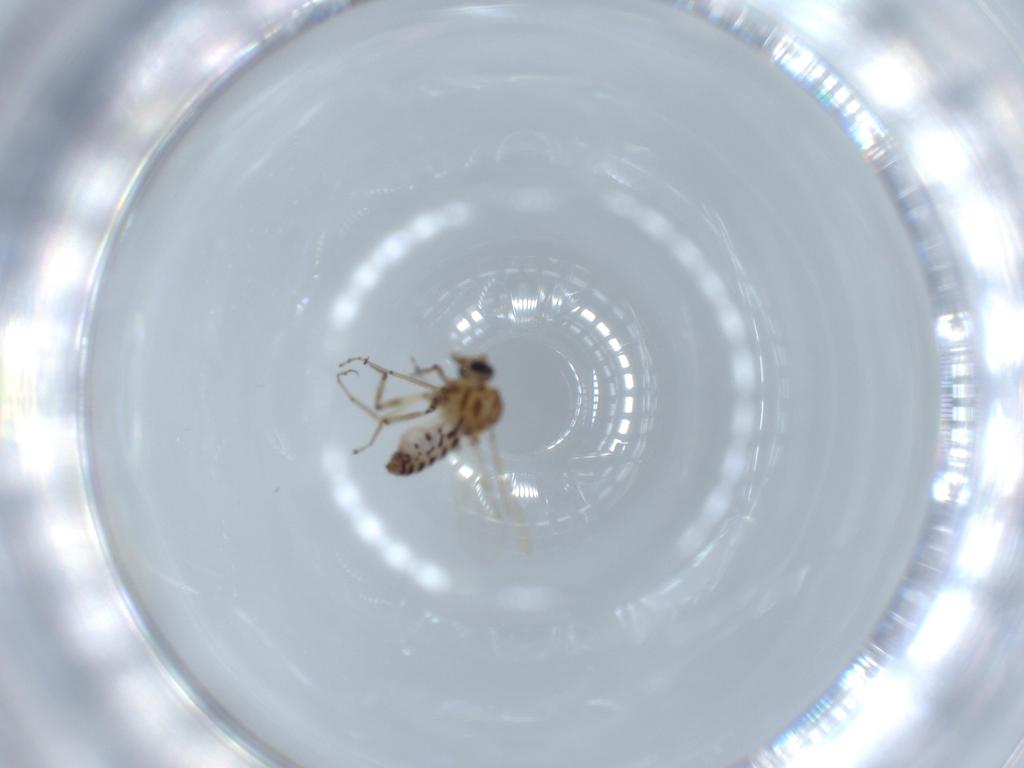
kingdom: Animalia
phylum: Arthropoda
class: Insecta
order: Diptera
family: Ceratopogonidae
